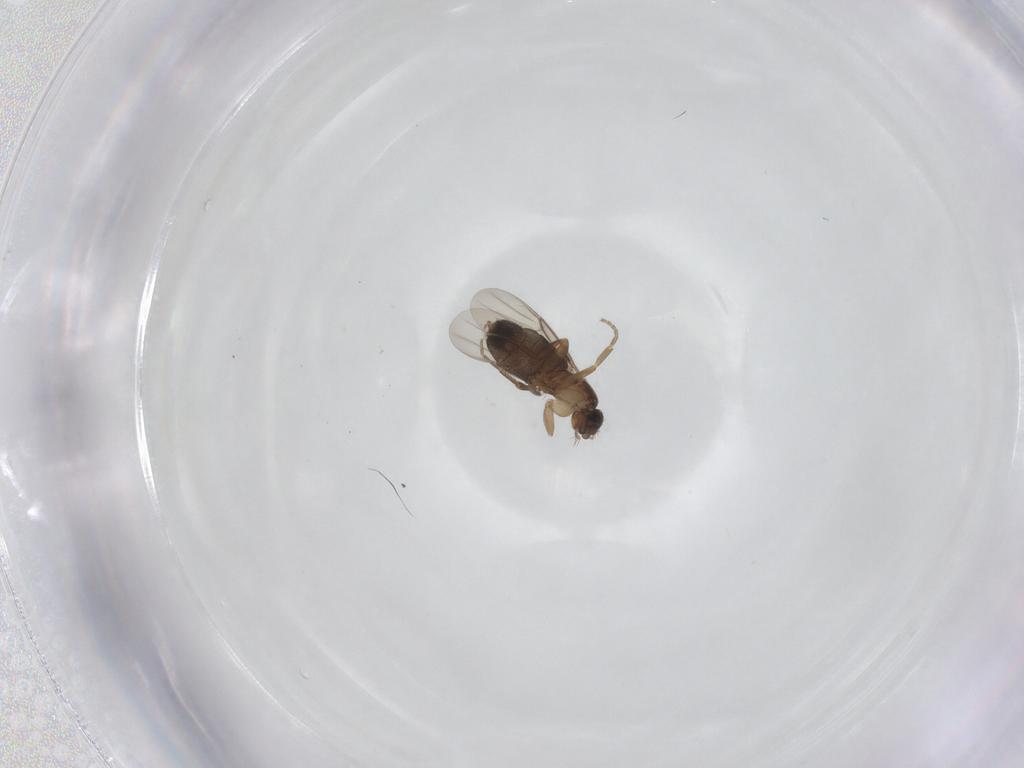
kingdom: Animalia
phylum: Arthropoda
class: Insecta
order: Diptera
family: Phoridae
